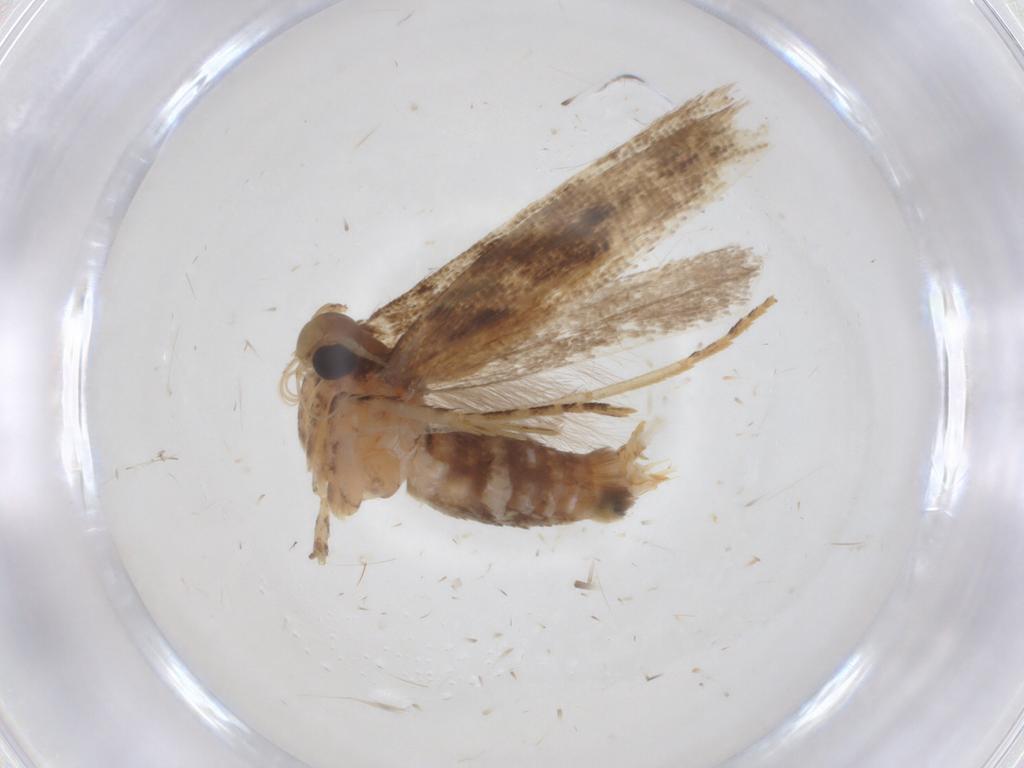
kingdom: Animalia
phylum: Arthropoda
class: Insecta
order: Lepidoptera
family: Gelechiidae
